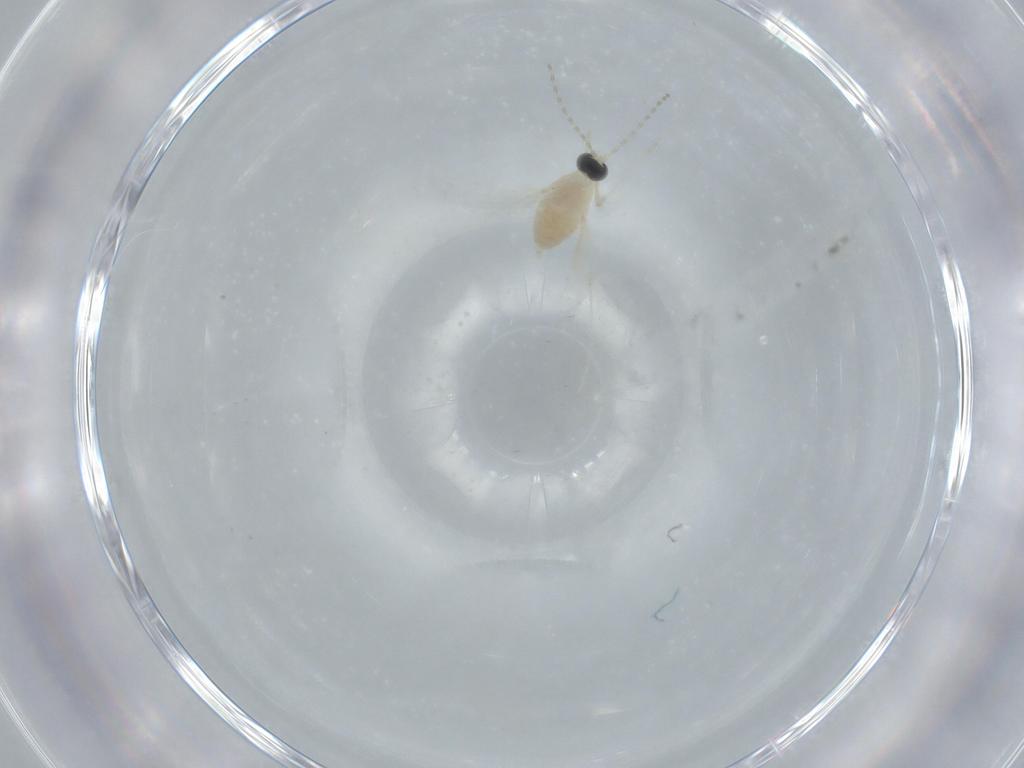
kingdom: Animalia
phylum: Arthropoda
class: Insecta
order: Diptera
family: Cecidomyiidae
